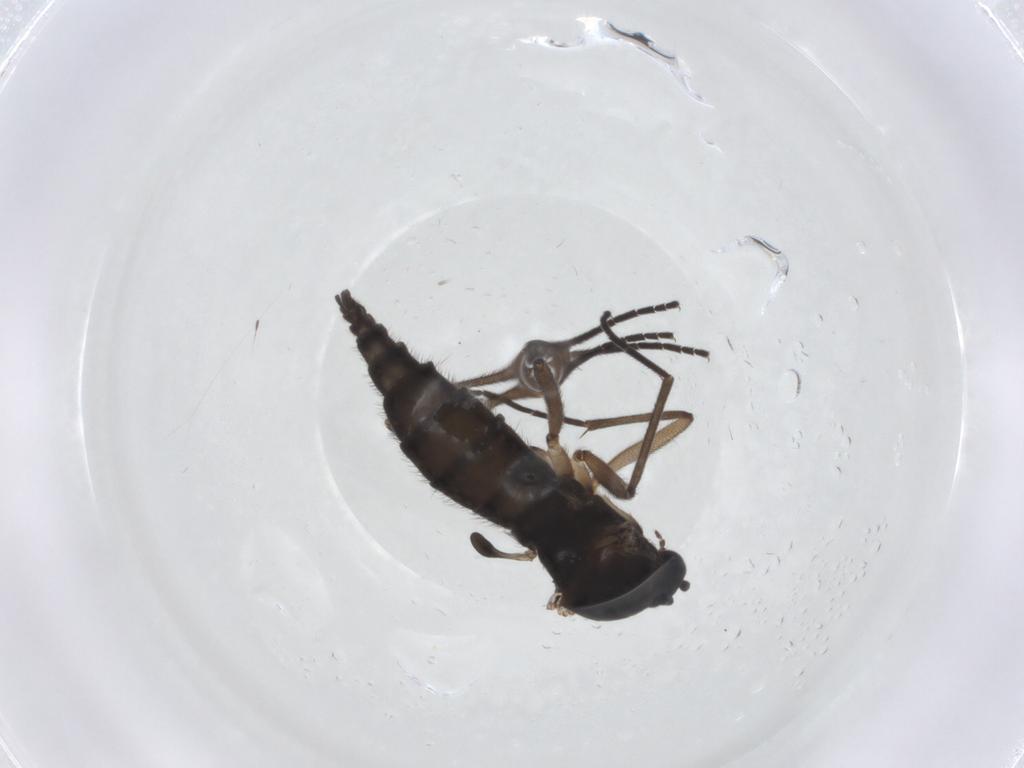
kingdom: Animalia
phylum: Arthropoda
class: Insecta
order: Diptera
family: Sciaridae
